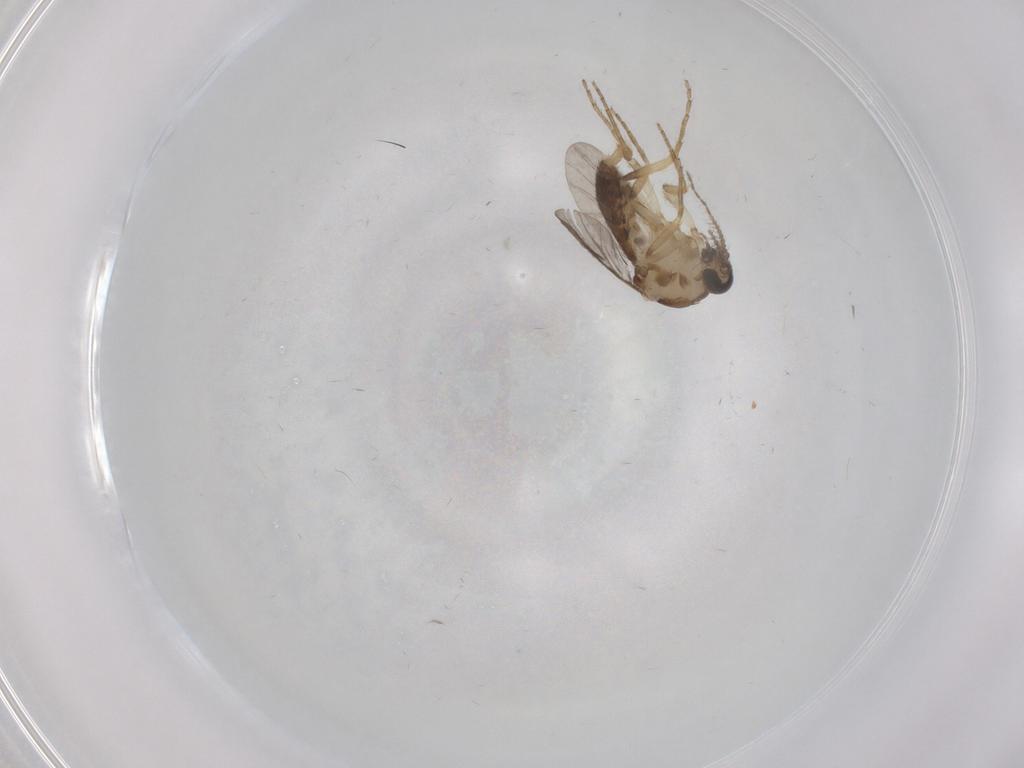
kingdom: Animalia
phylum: Arthropoda
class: Insecta
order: Diptera
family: Ceratopogonidae
